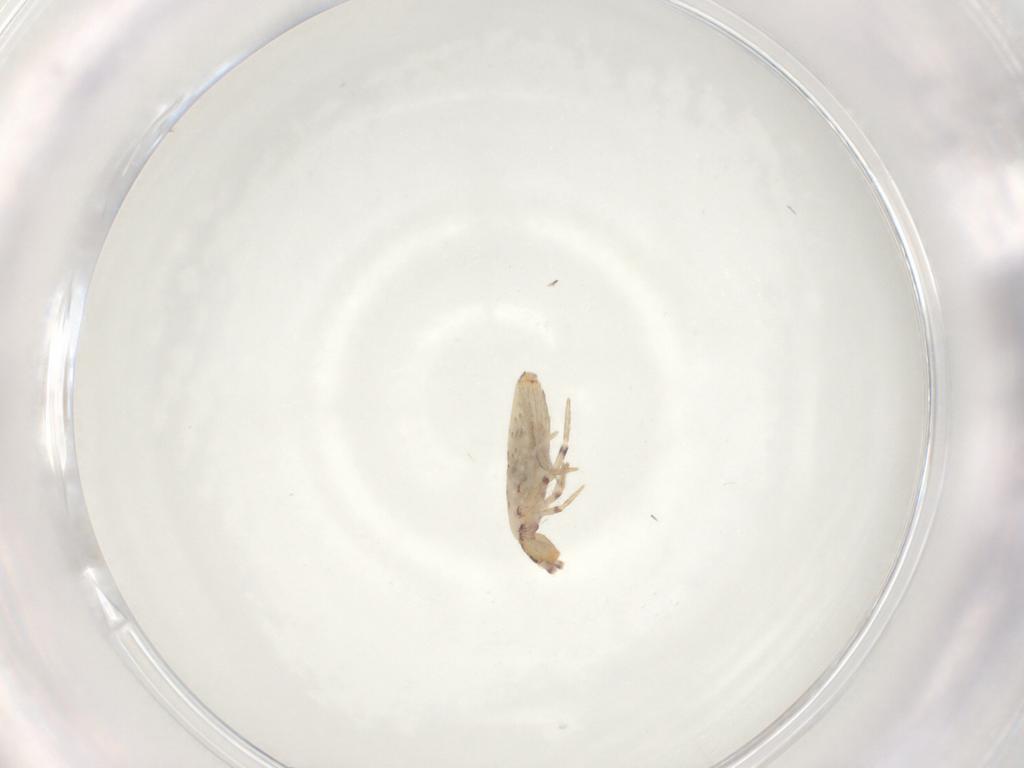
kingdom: Animalia
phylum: Arthropoda
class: Collembola
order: Entomobryomorpha
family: Entomobryidae
